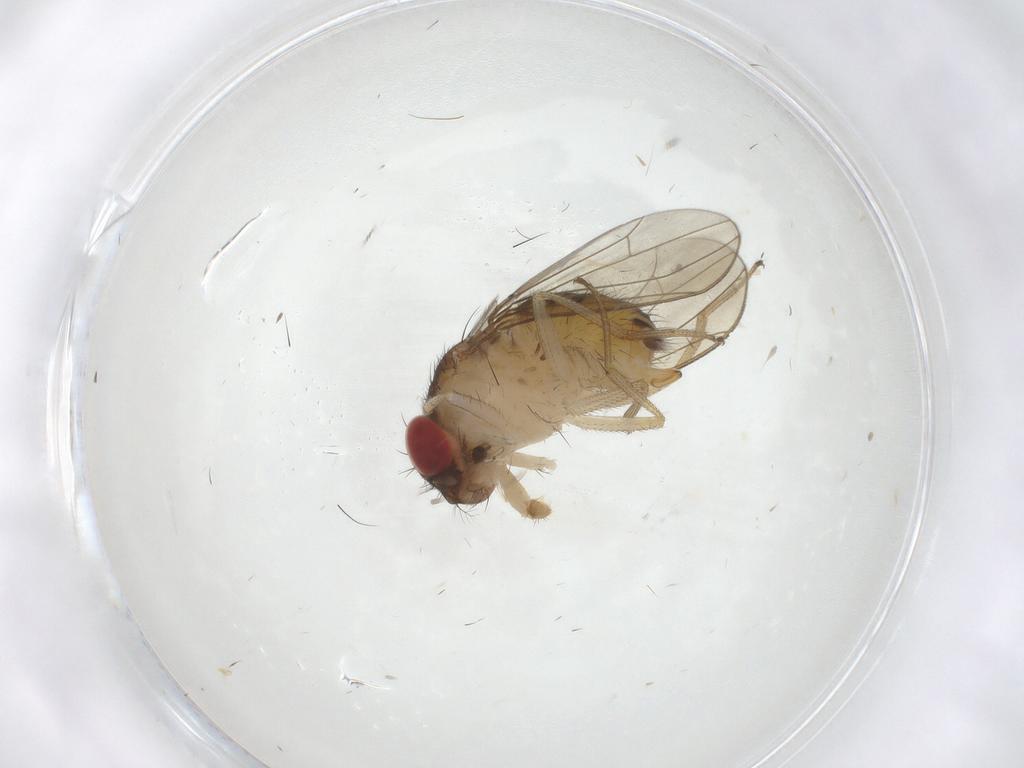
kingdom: Animalia
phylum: Arthropoda
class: Insecta
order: Diptera
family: Drosophilidae
